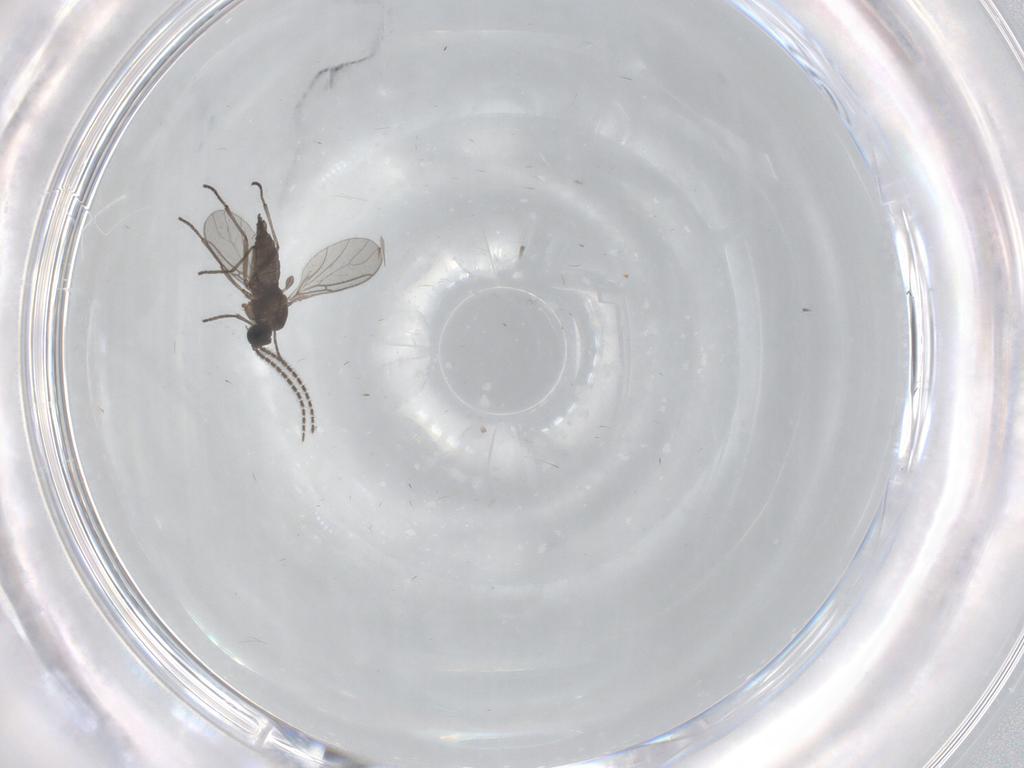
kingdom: Animalia
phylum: Arthropoda
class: Insecta
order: Diptera
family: Sciaridae
